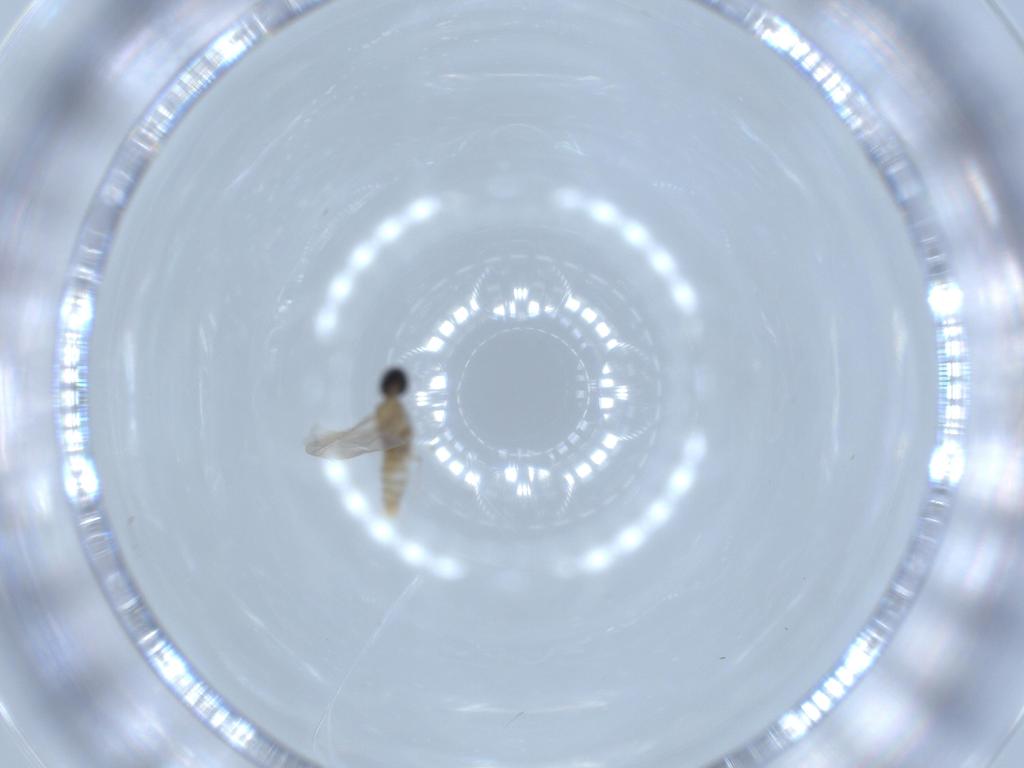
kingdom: Animalia
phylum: Arthropoda
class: Insecta
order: Diptera
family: Cecidomyiidae
